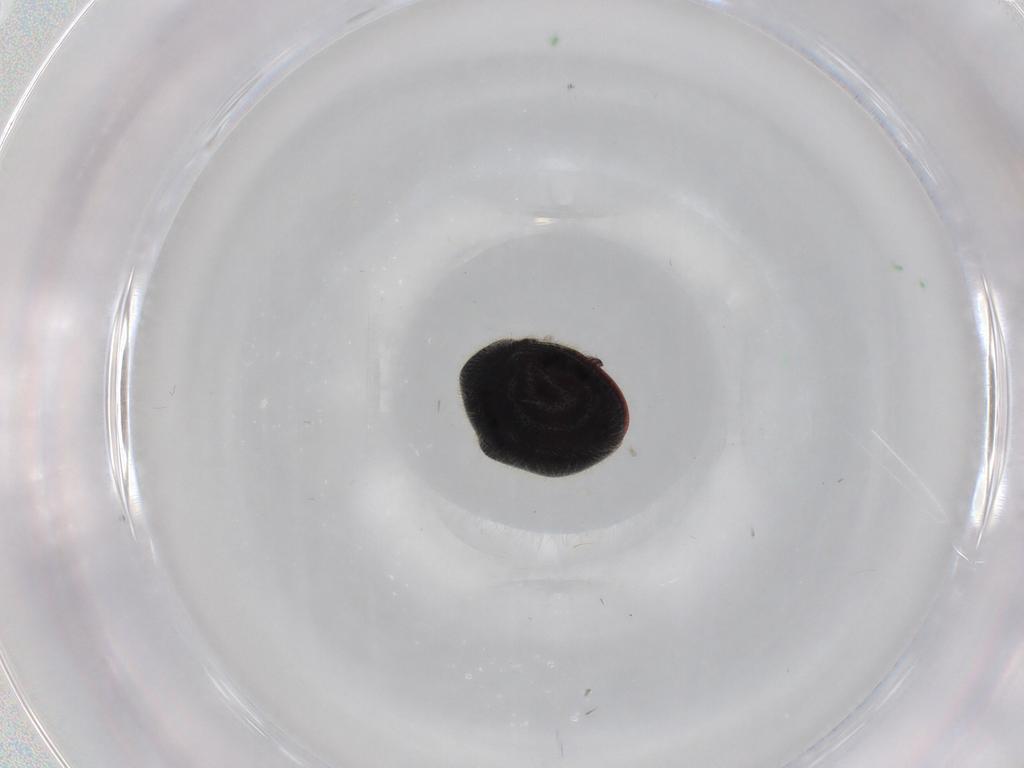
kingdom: Animalia
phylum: Arthropoda
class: Insecta
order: Coleoptera
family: Ptinidae
